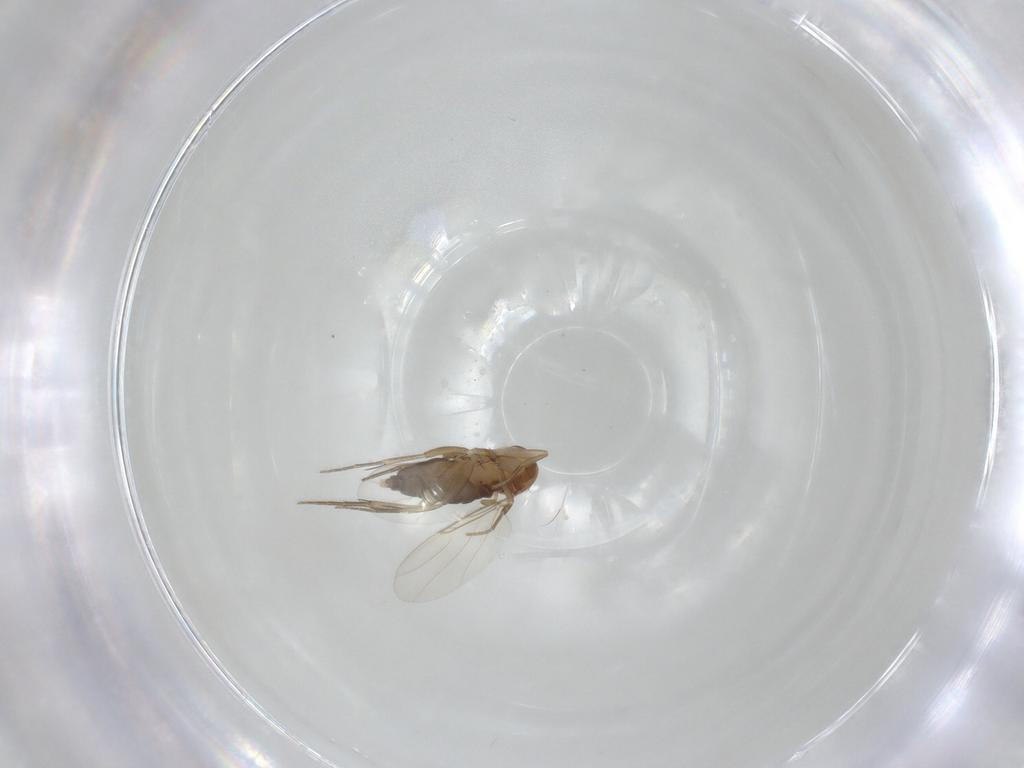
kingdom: Animalia
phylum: Arthropoda
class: Insecta
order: Diptera
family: Phoridae
